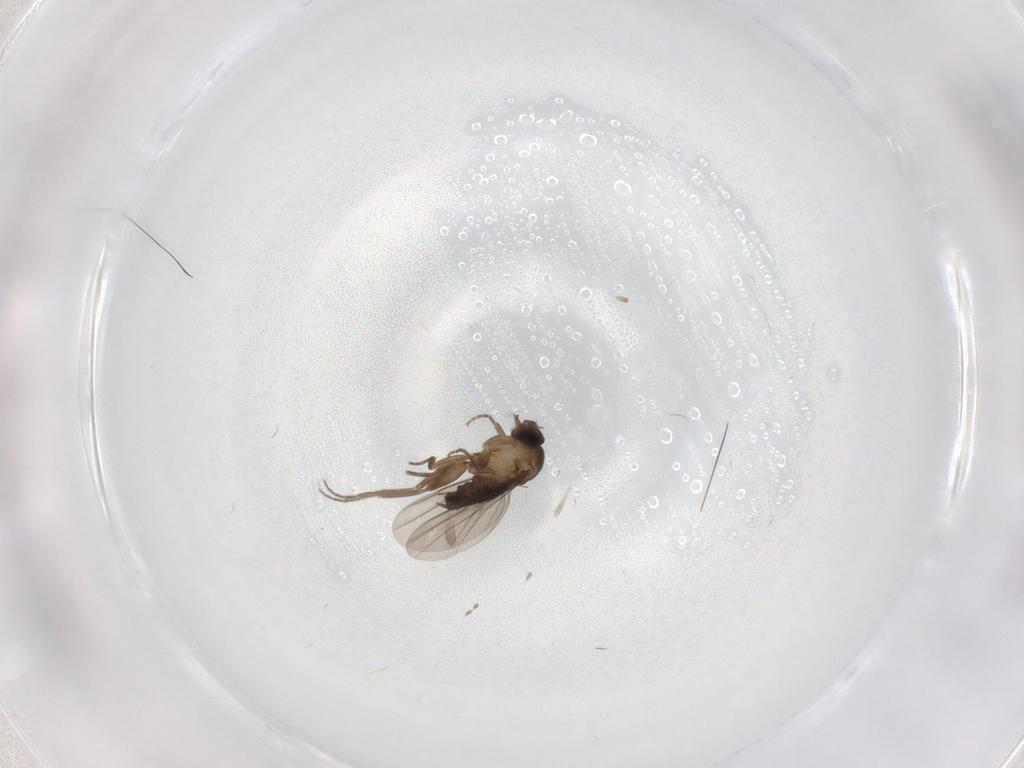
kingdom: Animalia
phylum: Arthropoda
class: Insecta
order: Diptera
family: Phoridae
